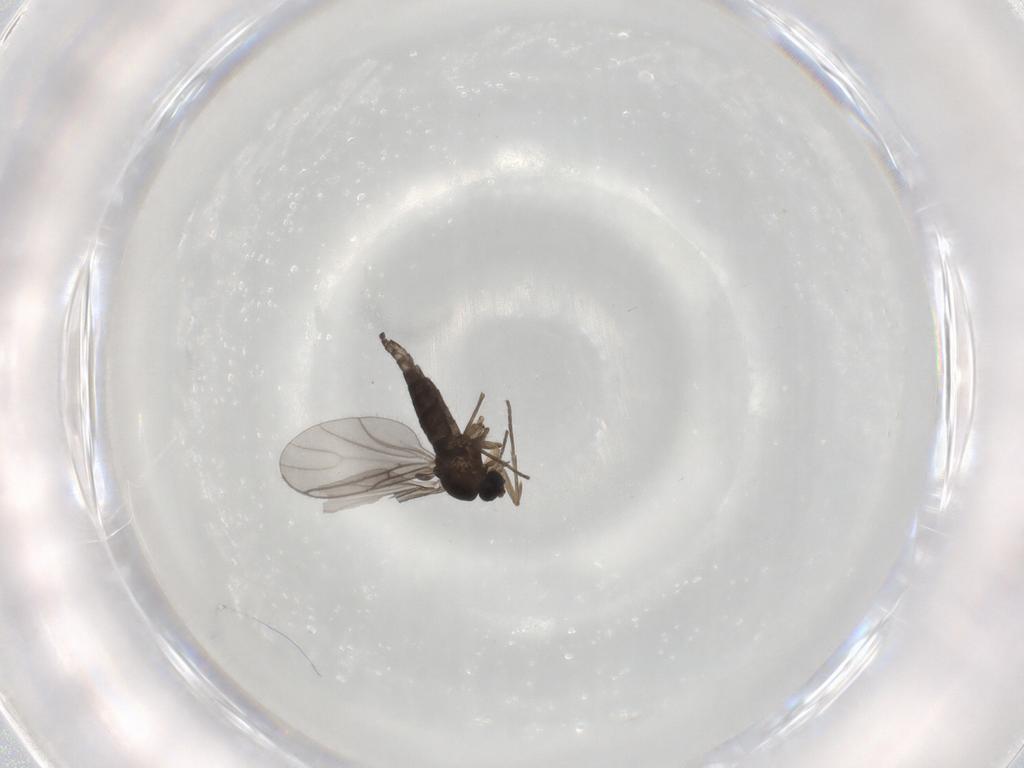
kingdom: Animalia
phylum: Arthropoda
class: Insecta
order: Diptera
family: Sciaridae
